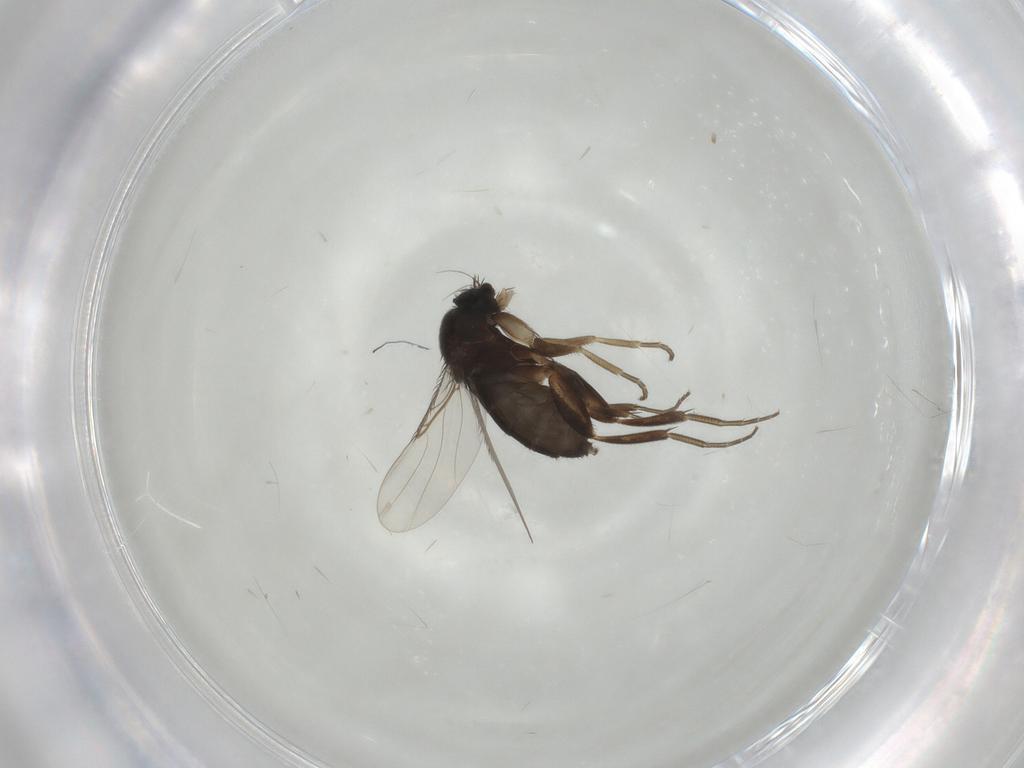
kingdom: Animalia
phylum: Arthropoda
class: Insecta
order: Diptera
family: Phoridae
